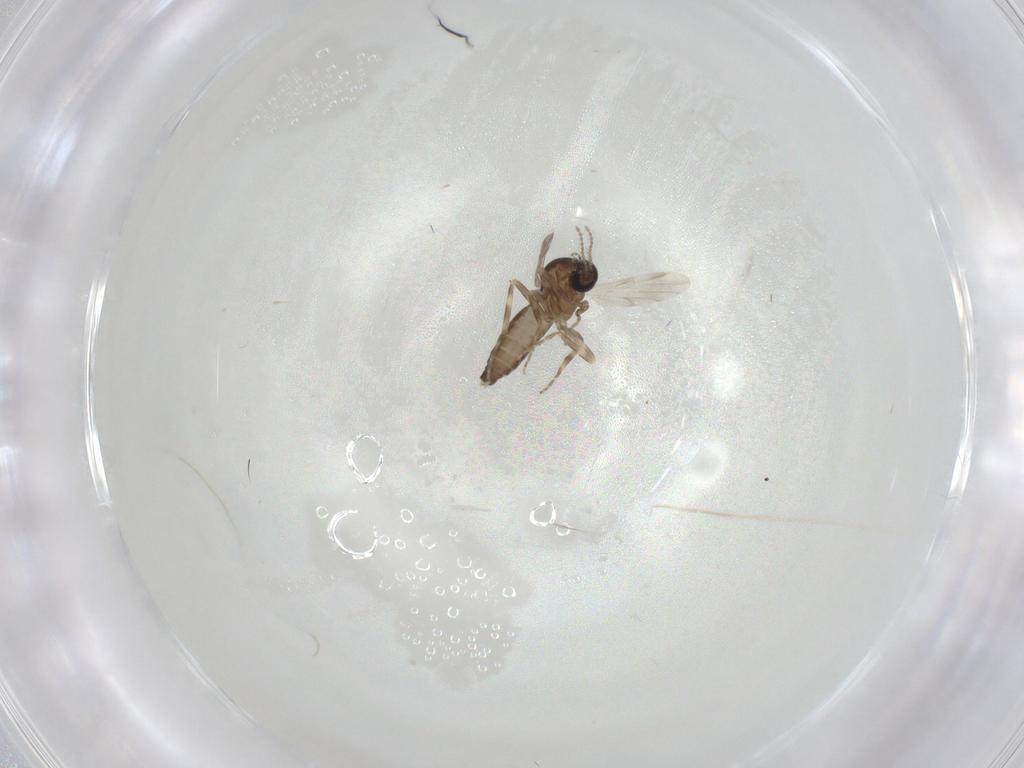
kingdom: Animalia
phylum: Arthropoda
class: Insecta
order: Diptera
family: Ceratopogonidae
